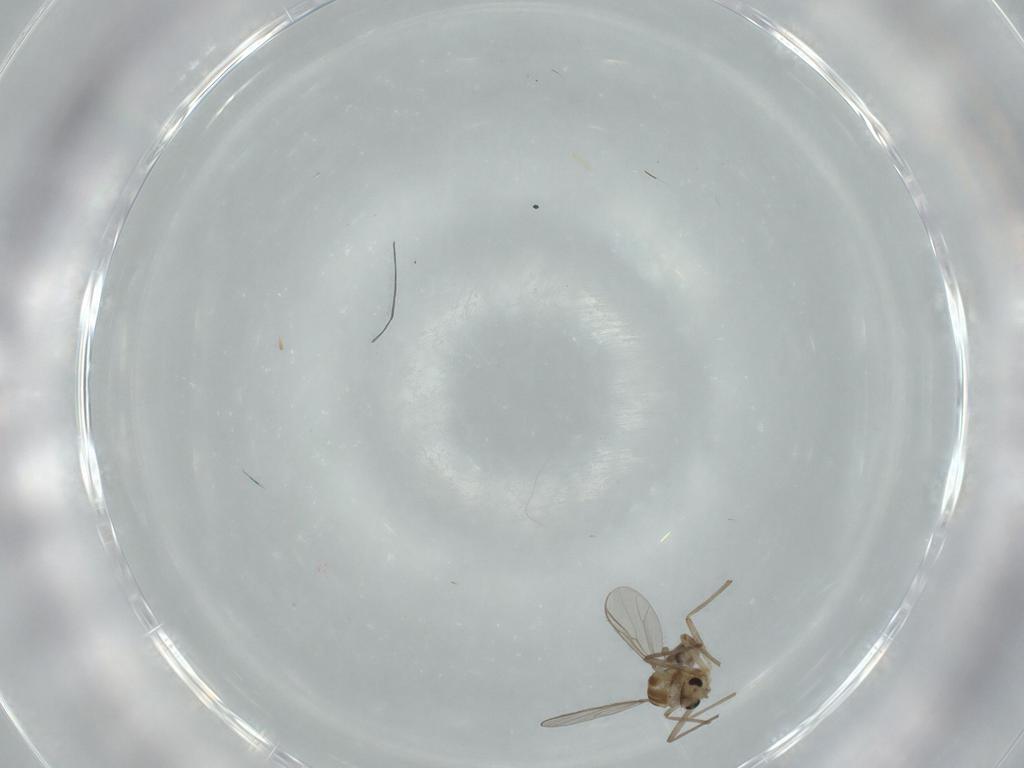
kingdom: Animalia
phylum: Arthropoda
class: Insecta
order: Diptera
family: Chironomidae
